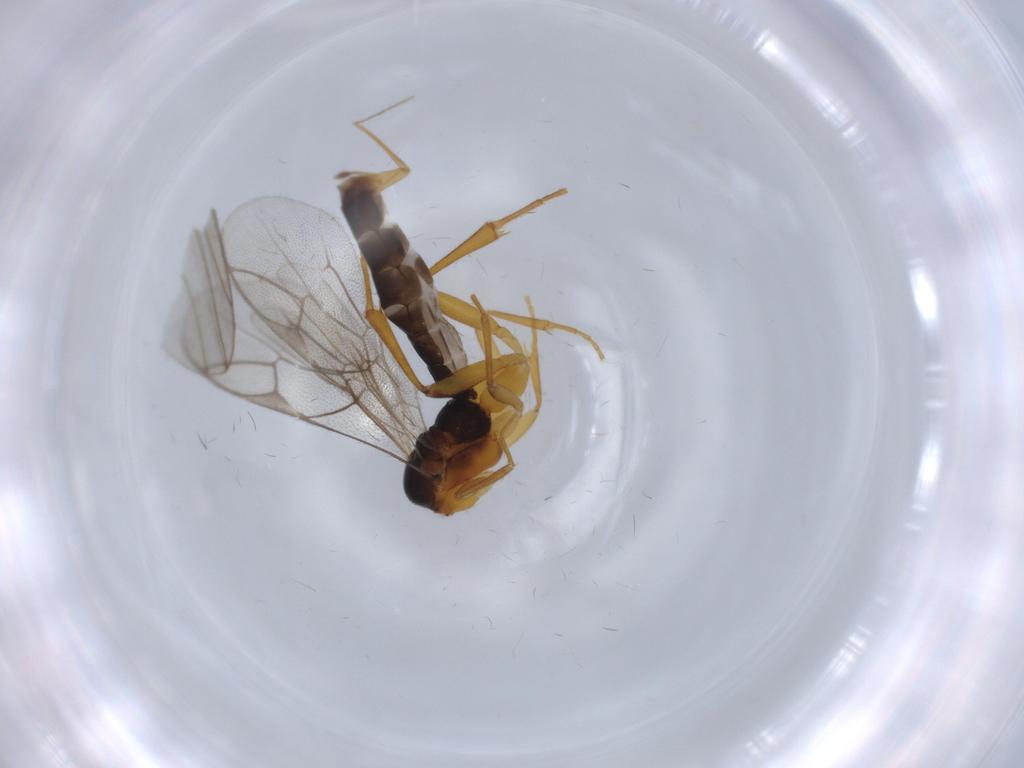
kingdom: Animalia
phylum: Arthropoda
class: Insecta
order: Hymenoptera
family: Ichneumonidae
